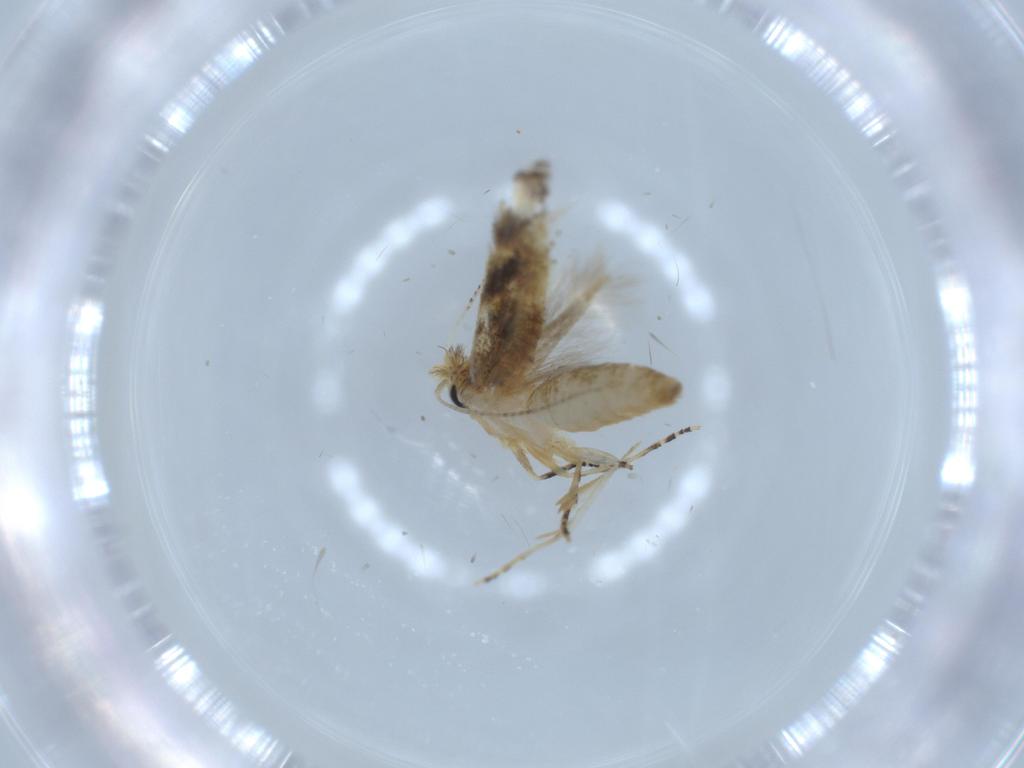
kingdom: Animalia
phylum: Arthropoda
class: Insecta
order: Lepidoptera
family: Bucculatricidae
